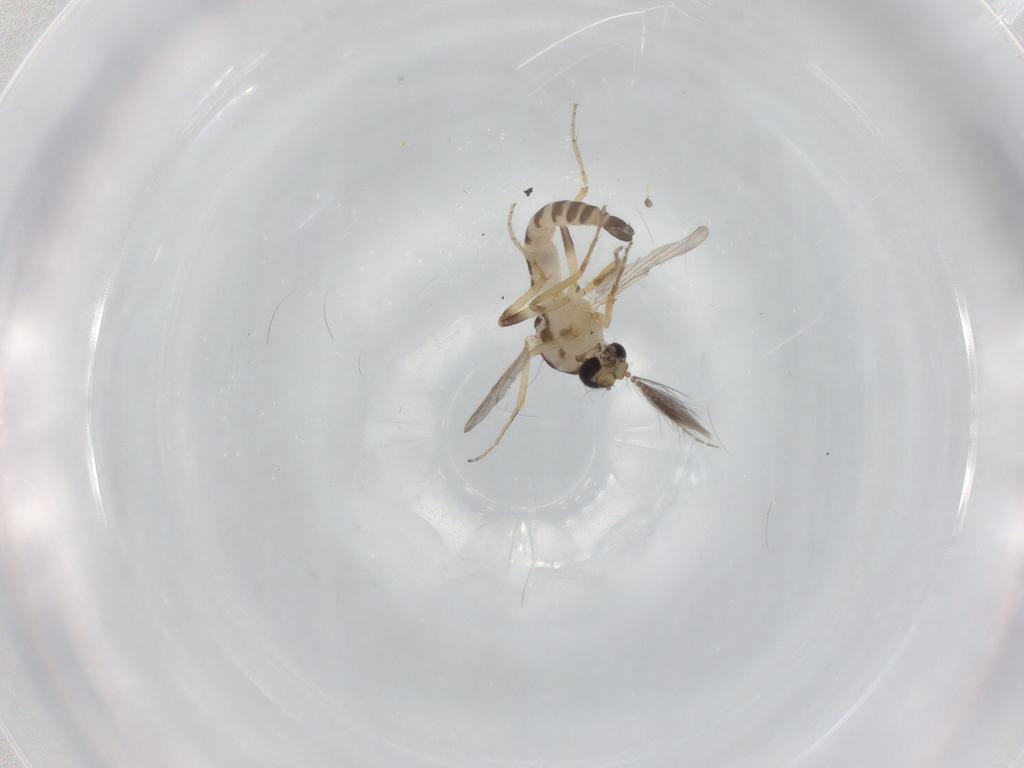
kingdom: Animalia
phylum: Arthropoda
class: Insecta
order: Diptera
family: Ceratopogonidae
